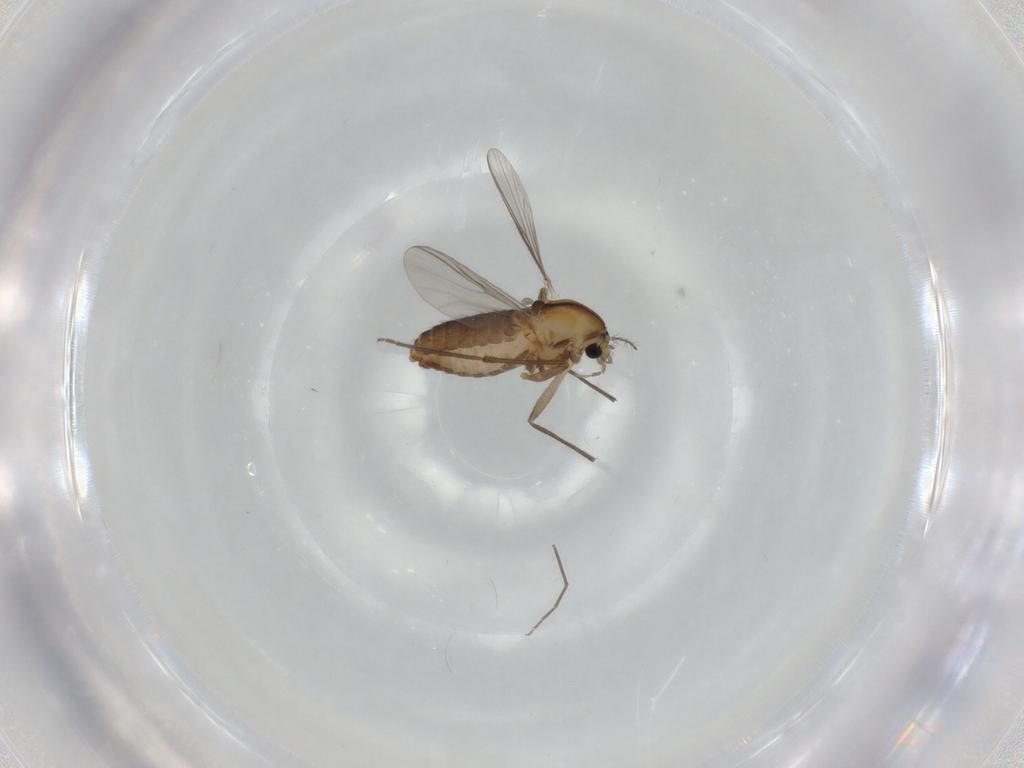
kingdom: Animalia
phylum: Arthropoda
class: Insecta
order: Diptera
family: Chironomidae
